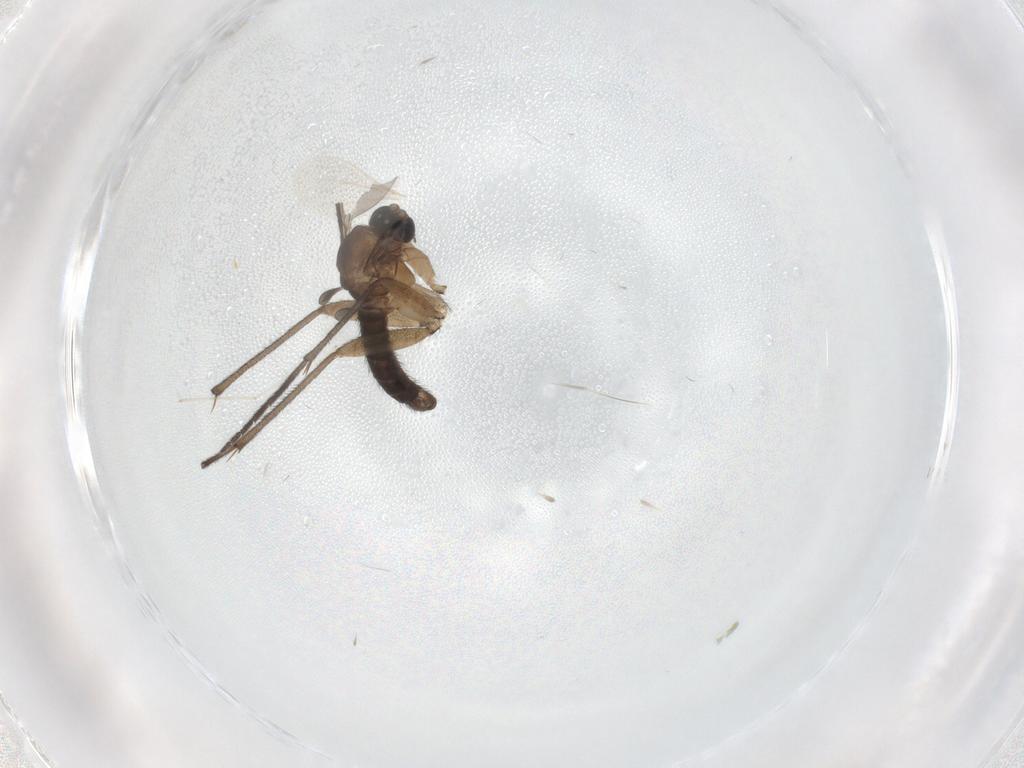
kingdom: Animalia
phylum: Arthropoda
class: Insecta
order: Diptera
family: Sciaridae
